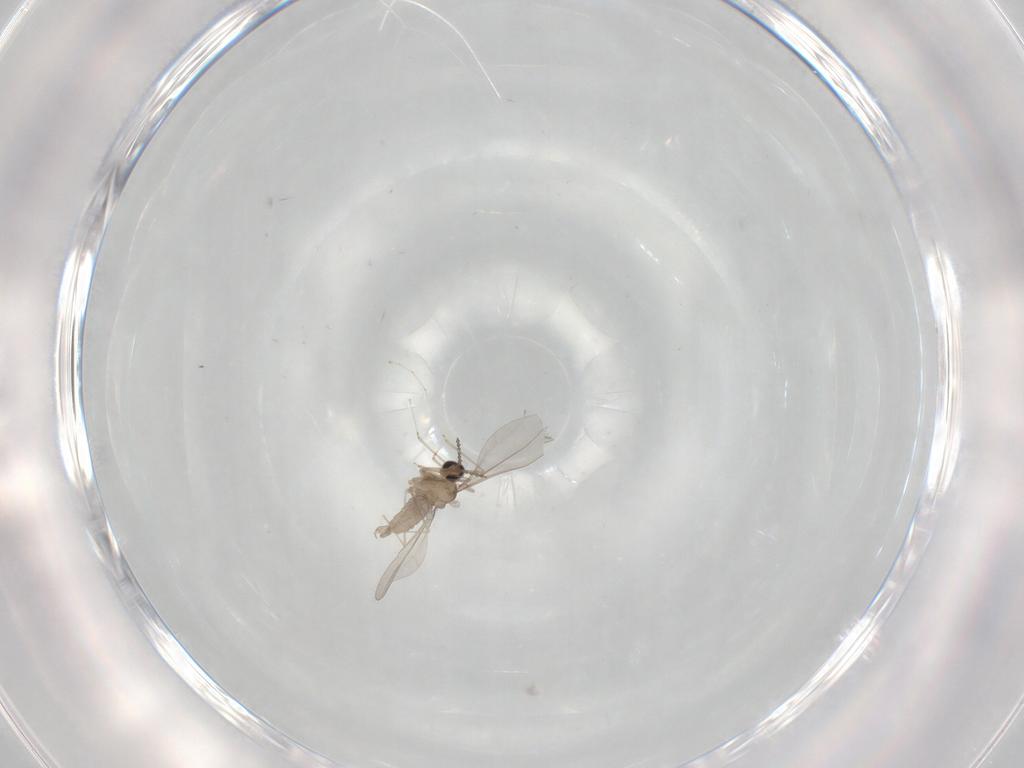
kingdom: Animalia
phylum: Arthropoda
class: Insecta
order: Diptera
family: Cecidomyiidae
